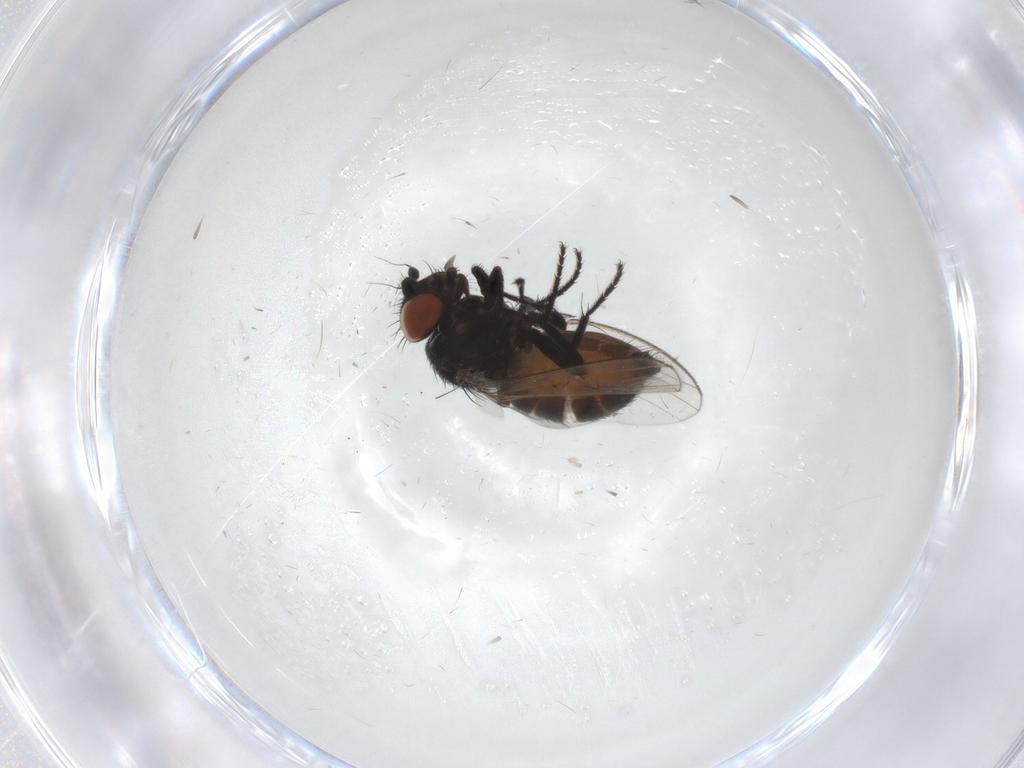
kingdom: Animalia
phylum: Arthropoda
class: Insecta
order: Diptera
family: Milichiidae
